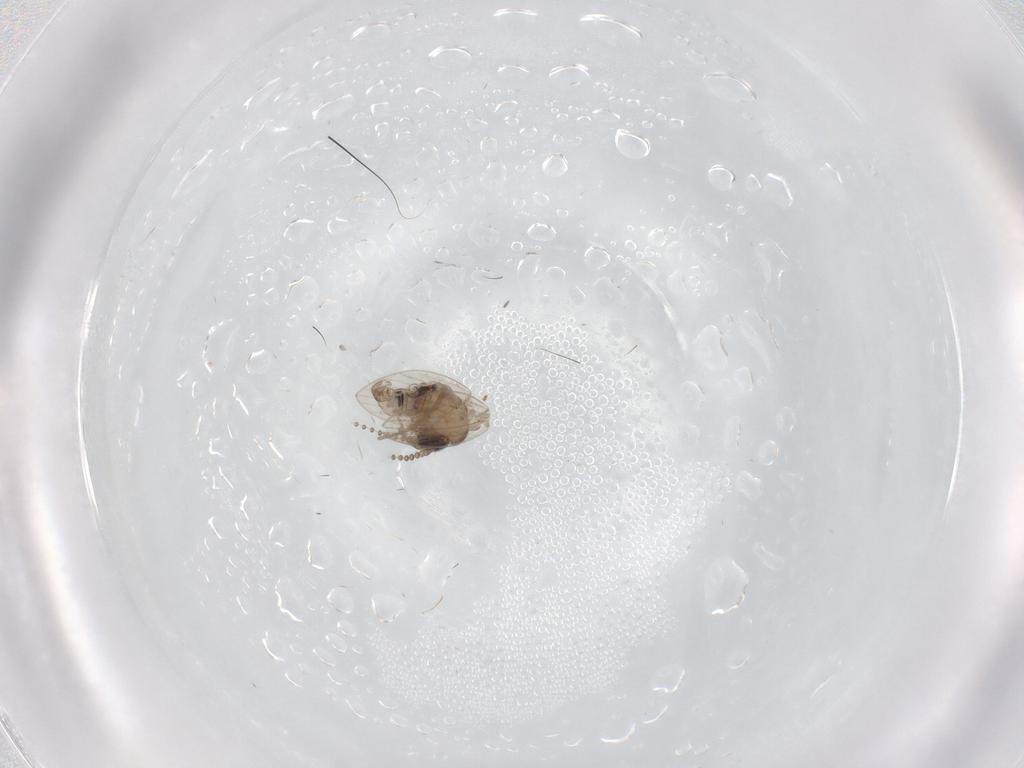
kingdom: Animalia
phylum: Arthropoda
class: Insecta
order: Diptera
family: Psychodidae
